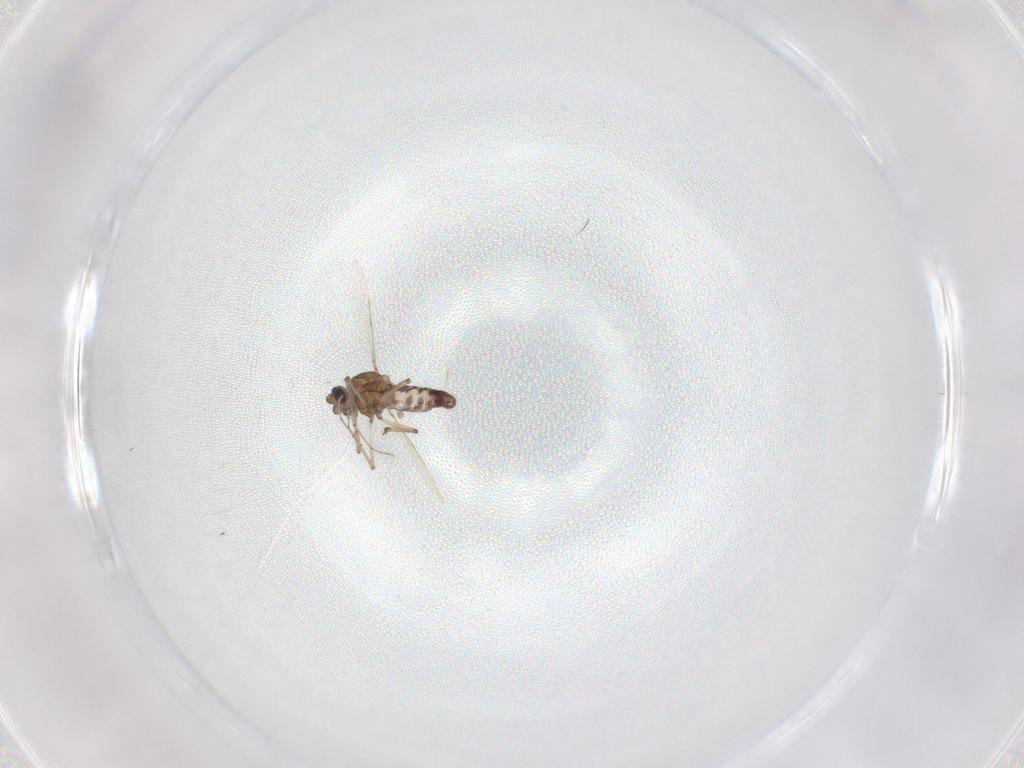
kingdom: Animalia
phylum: Arthropoda
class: Insecta
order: Diptera
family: Ceratopogonidae
